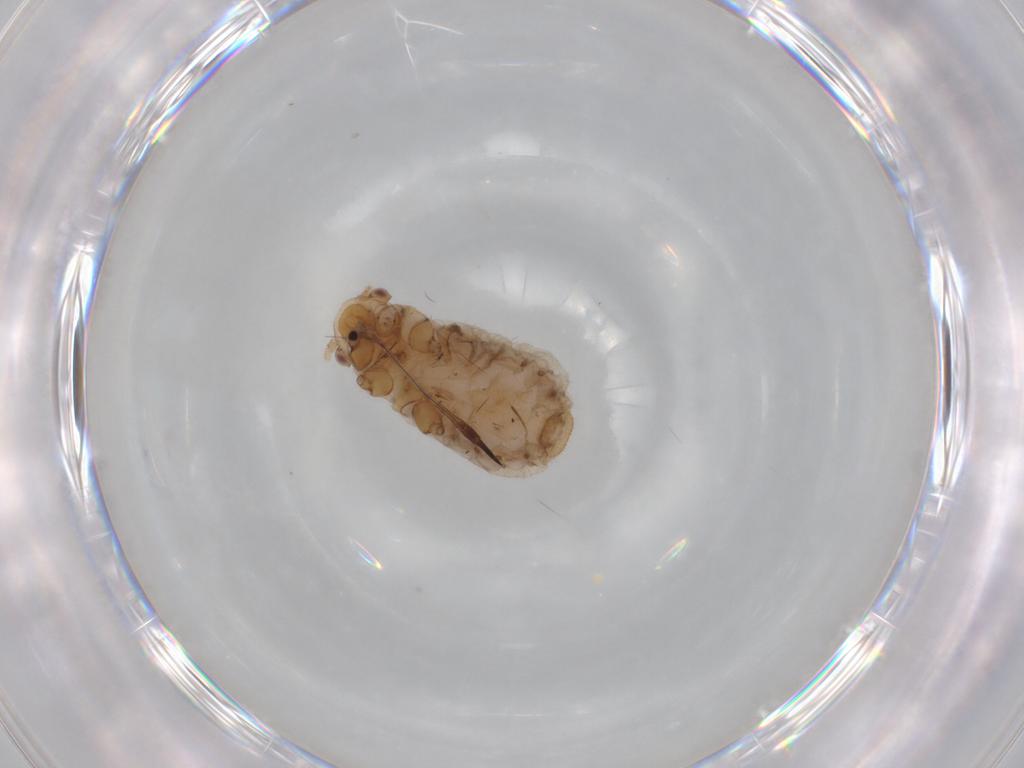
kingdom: Animalia
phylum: Arthropoda
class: Insecta
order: Hemiptera
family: Aphididae
